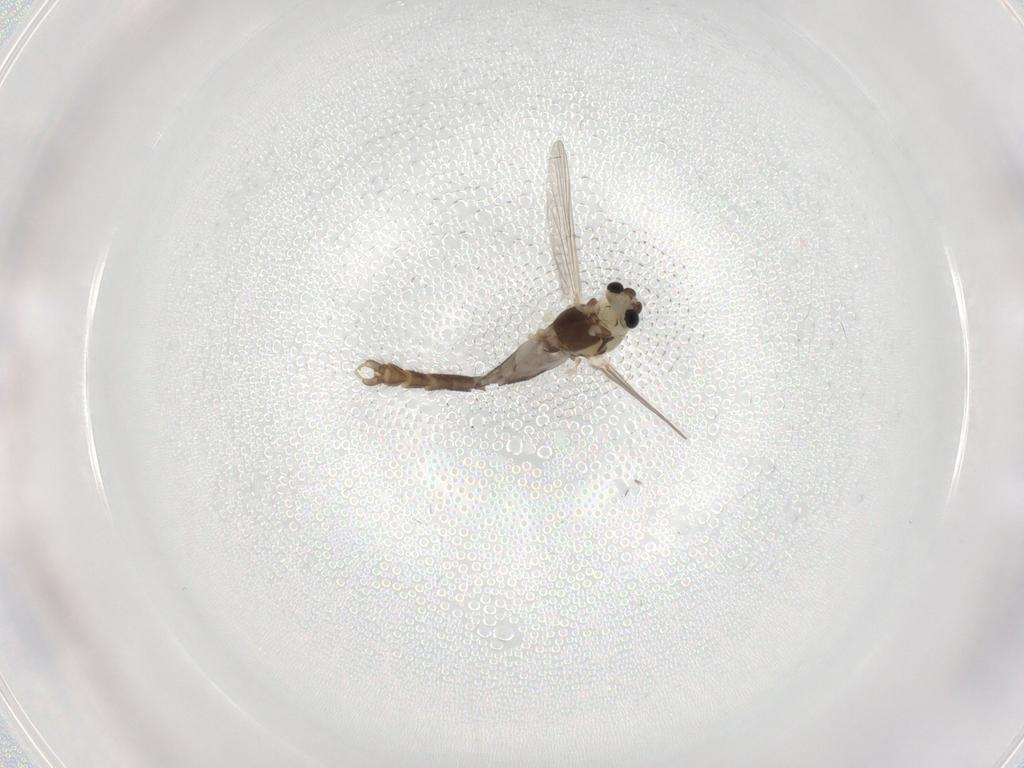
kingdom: Animalia
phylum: Arthropoda
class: Insecta
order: Diptera
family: Chironomidae
